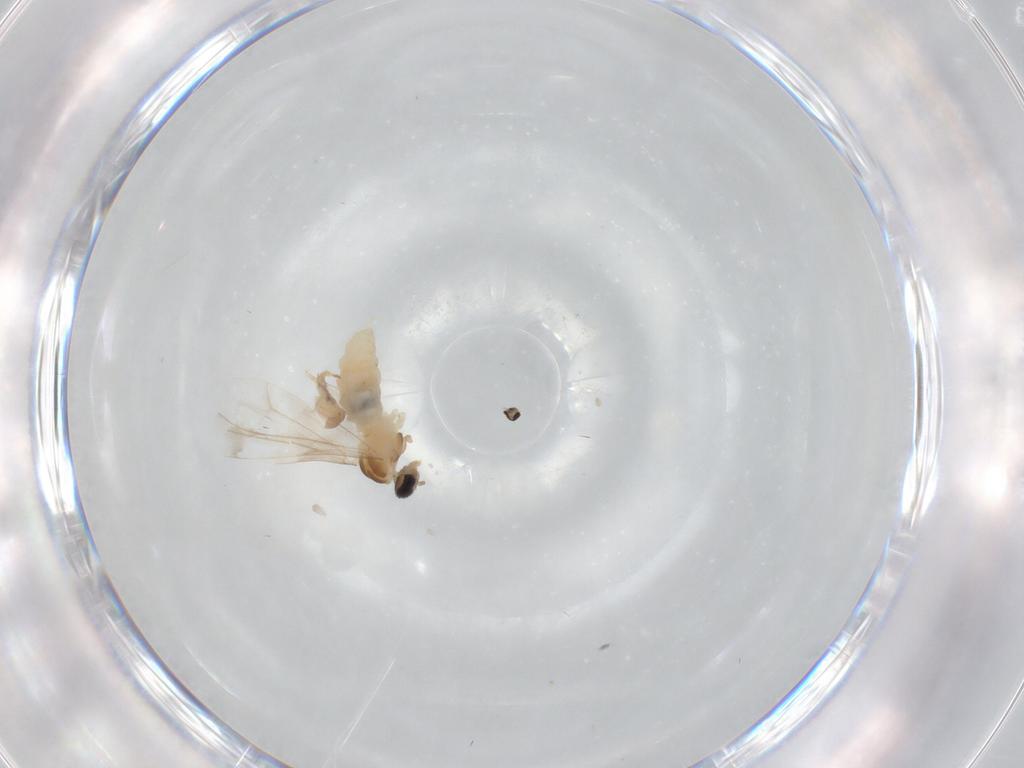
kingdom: Animalia
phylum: Arthropoda
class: Insecta
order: Diptera
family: Cecidomyiidae
